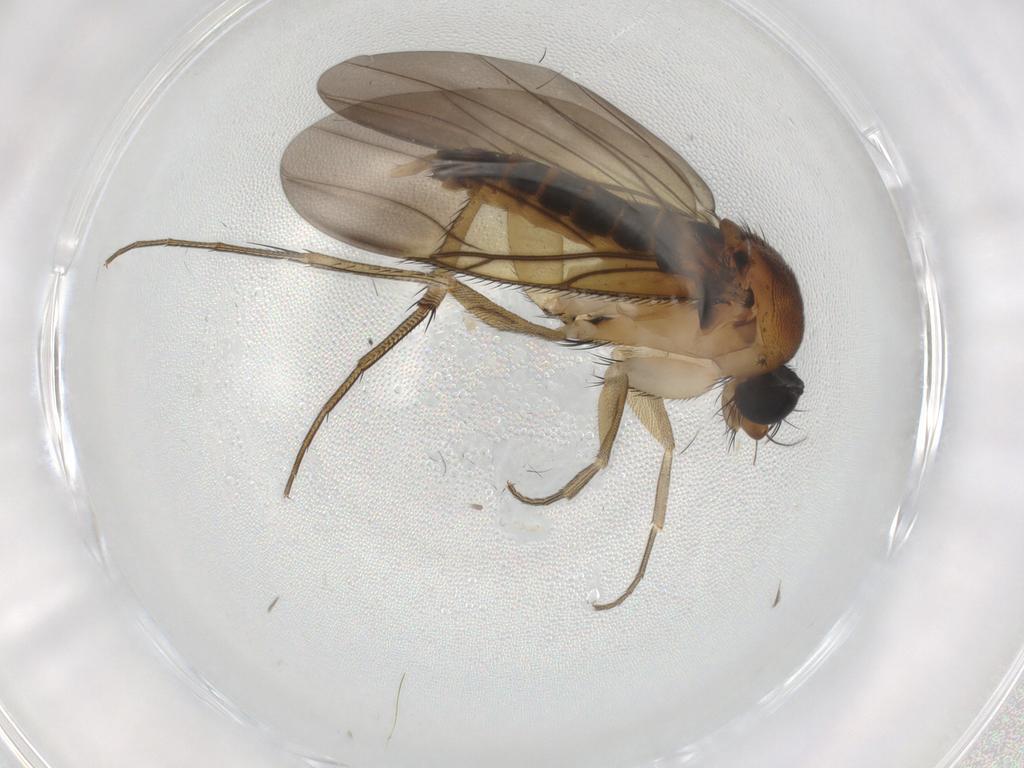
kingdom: Animalia
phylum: Arthropoda
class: Insecta
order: Diptera
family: Phoridae
